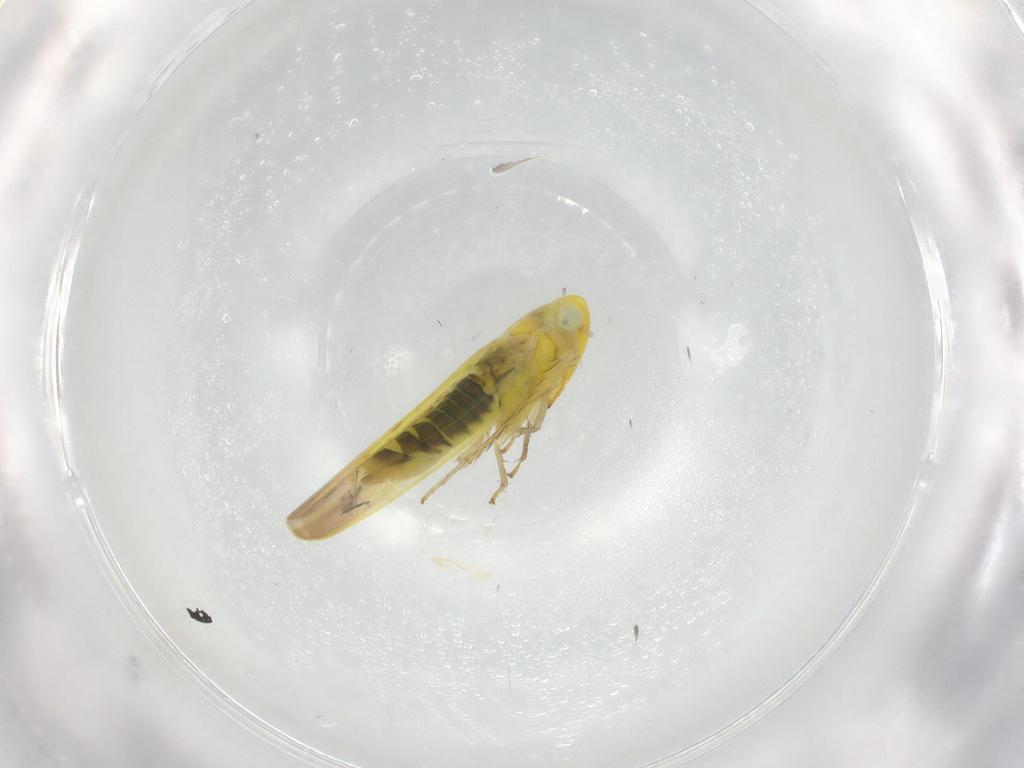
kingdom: Animalia
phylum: Arthropoda
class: Insecta
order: Hemiptera
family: Cicadellidae
